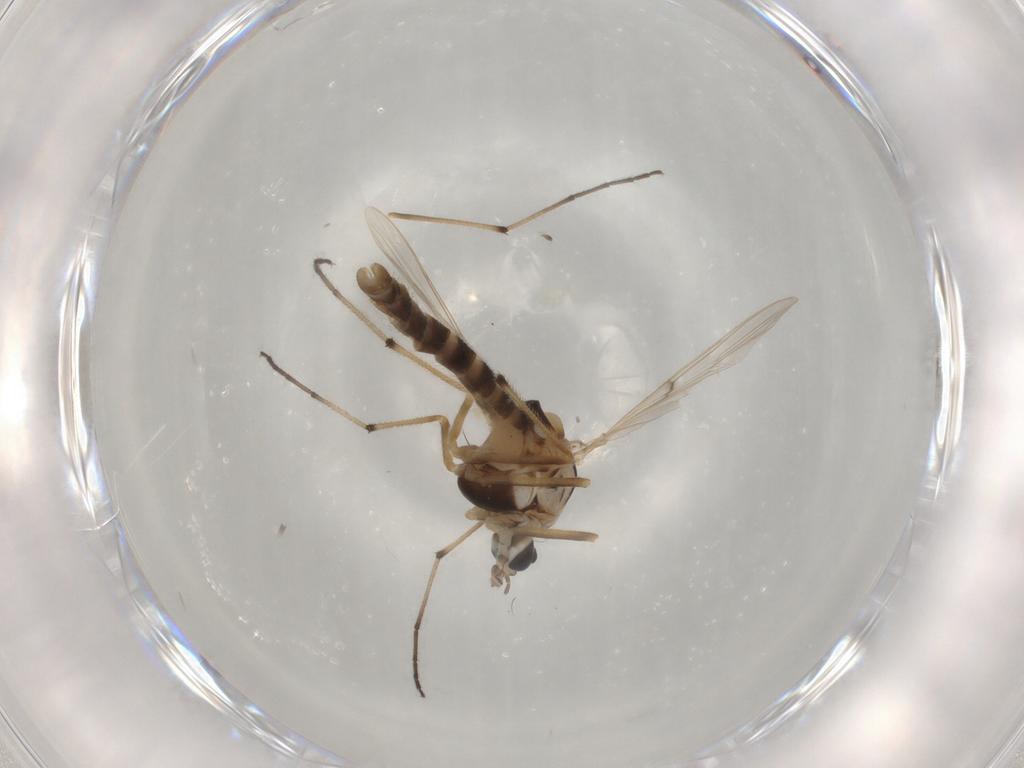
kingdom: Animalia
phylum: Arthropoda
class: Insecta
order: Diptera
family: Chironomidae
